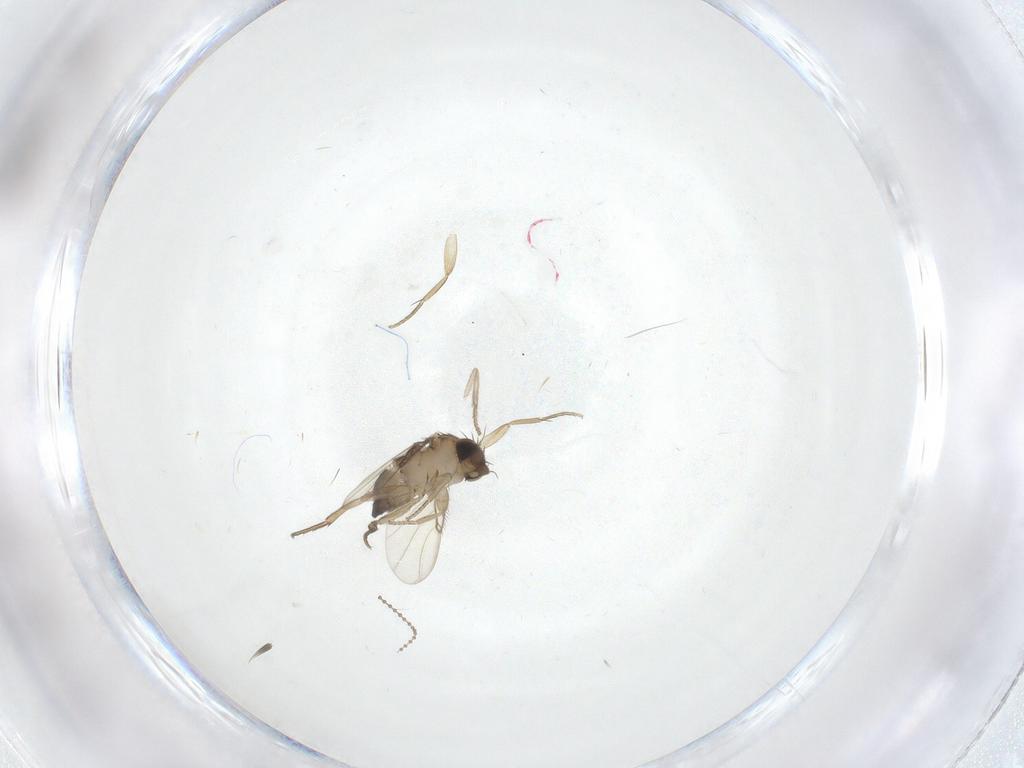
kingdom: Animalia
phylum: Arthropoda
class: Insecta
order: Diptera
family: Psychodidae
